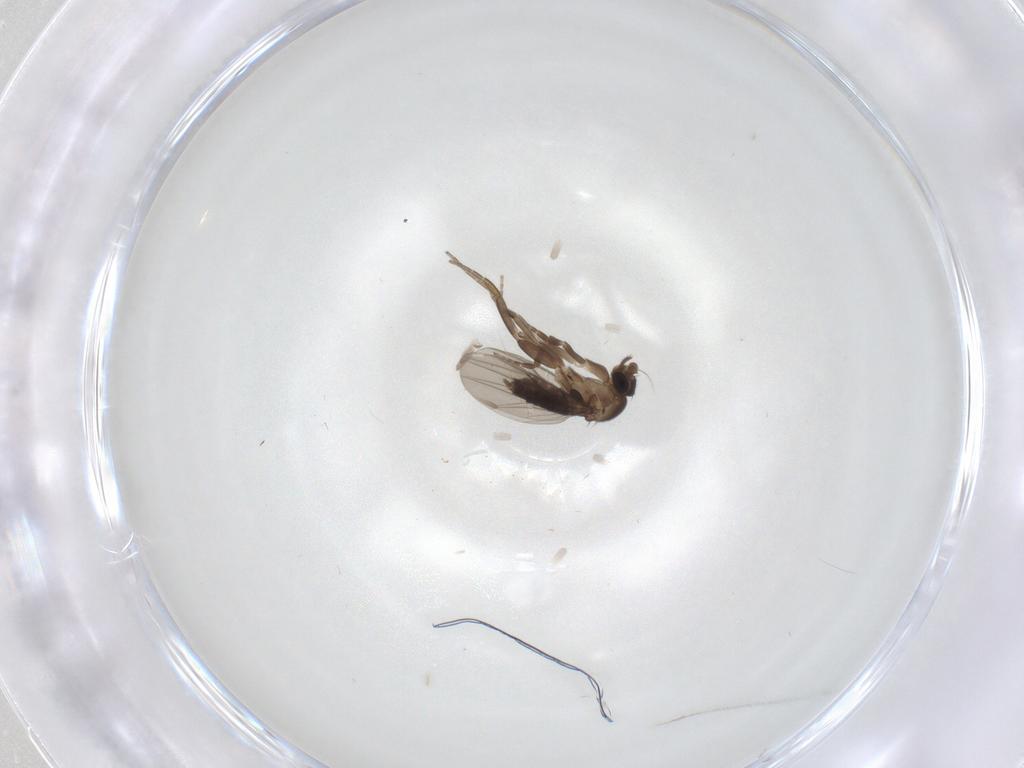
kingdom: Animalia
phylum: Arthropoda
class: Insecta
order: Diptera
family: Phoridae
